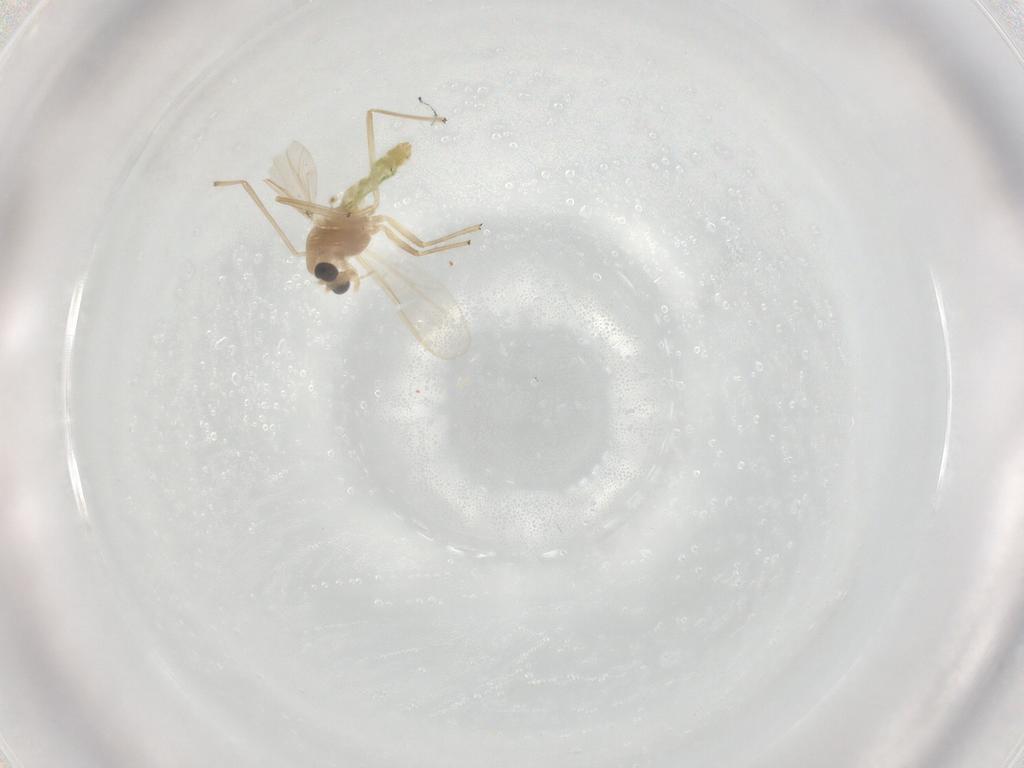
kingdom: Animalia
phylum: Arthropoda
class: Insecta
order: Diptera
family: Chironomidae
